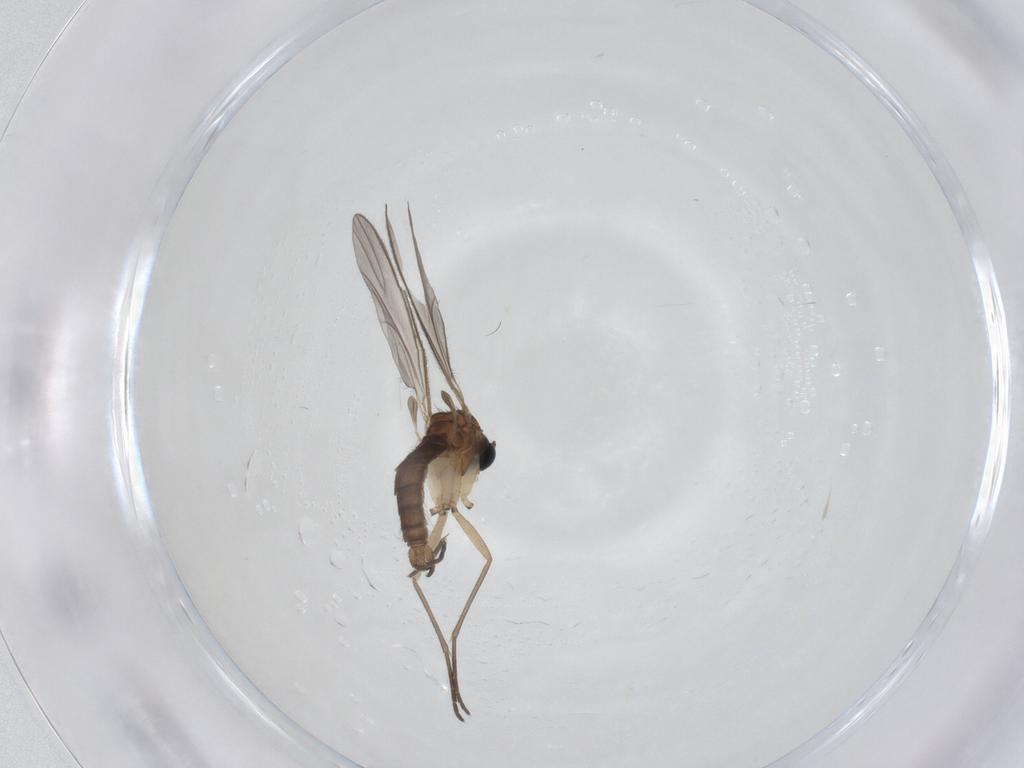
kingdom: Animalia
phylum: Arthropoda
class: Insecta
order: Diptera
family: Sciaridae
